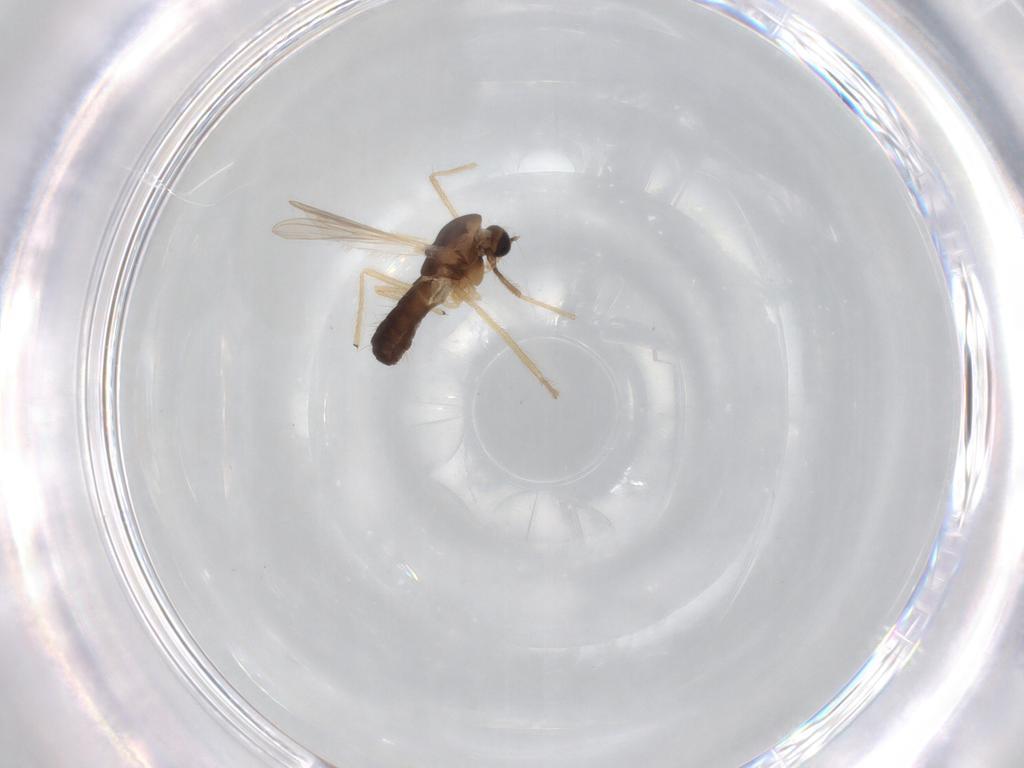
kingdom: Animalia
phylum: Arthropoda
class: Insecta
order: Diptera
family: Chironomidae
